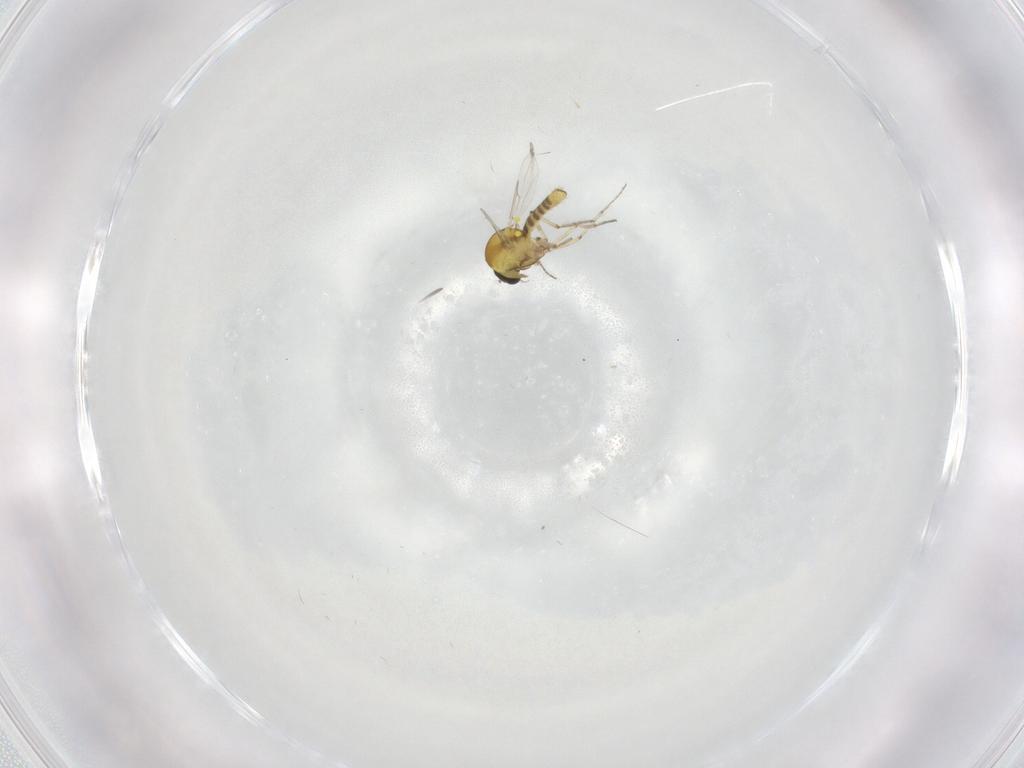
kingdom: Animalia
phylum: Arthropoda
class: Insecta
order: Diptera
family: Ceratopogonidae
